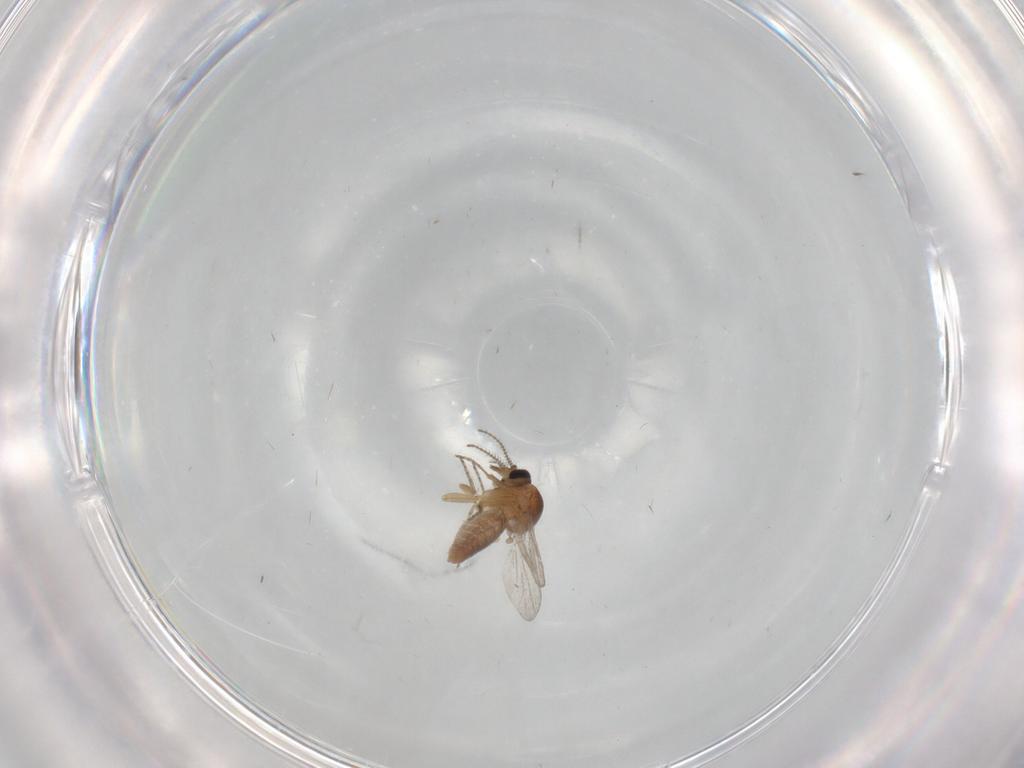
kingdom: Animalia
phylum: Arthropoda
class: Insecta
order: Diptera
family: Ceratopogonidae
